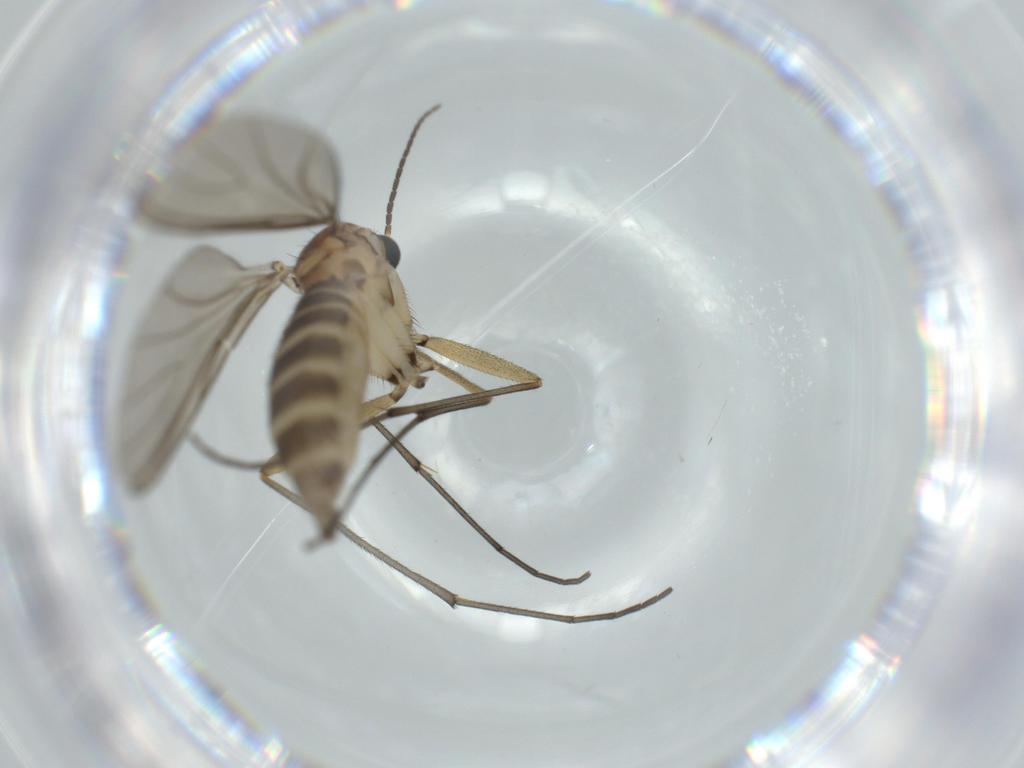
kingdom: Animalia
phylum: Arthropoda
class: Insecta
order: Diptera
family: Sciaridae
